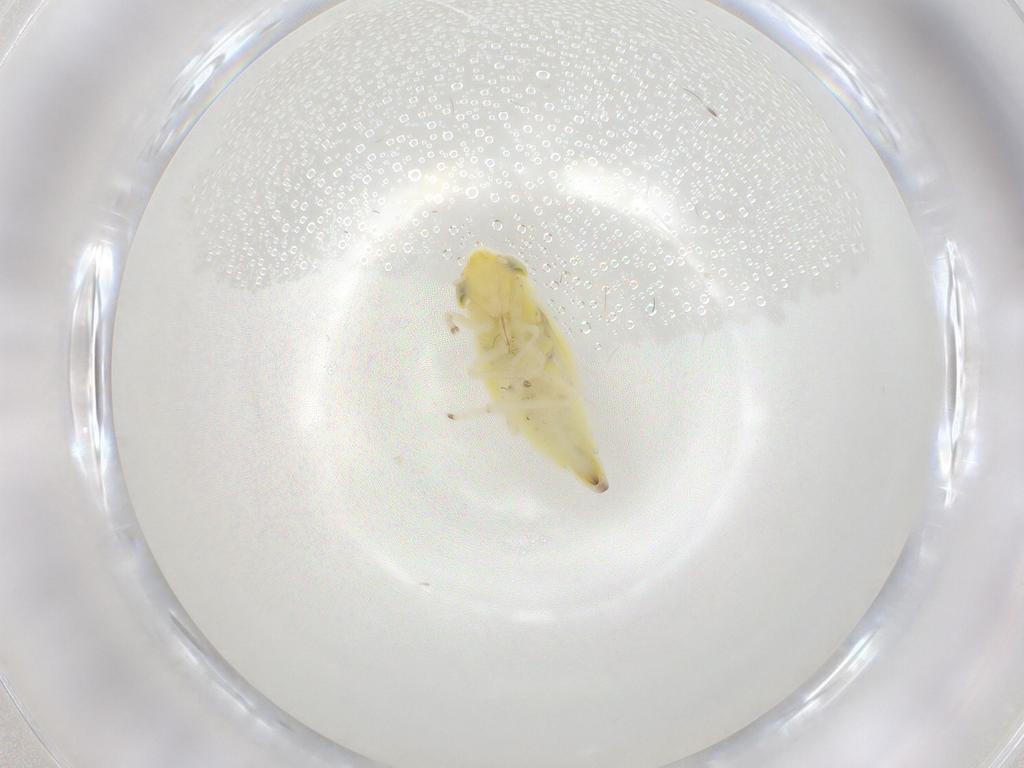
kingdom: Animalia
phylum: Arthropoda
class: Insecta
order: Hemiptera
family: Cicadellidae
